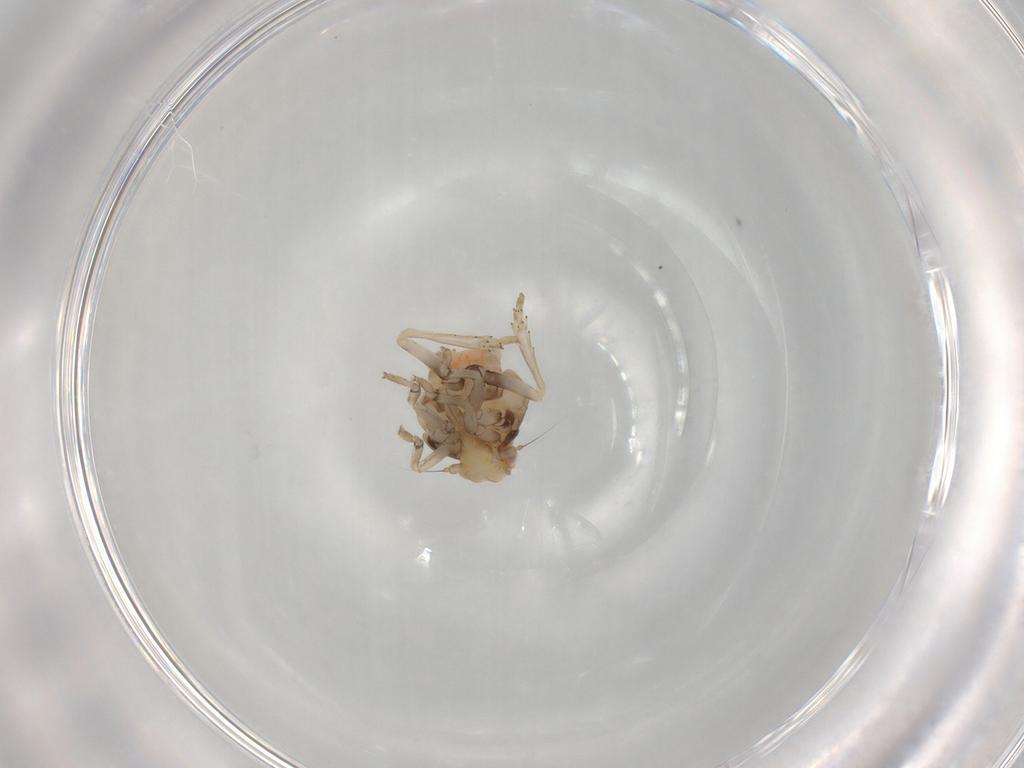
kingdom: Animalia
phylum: Arthropoda
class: Insecta
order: Hemiptera
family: Ricaniidae
